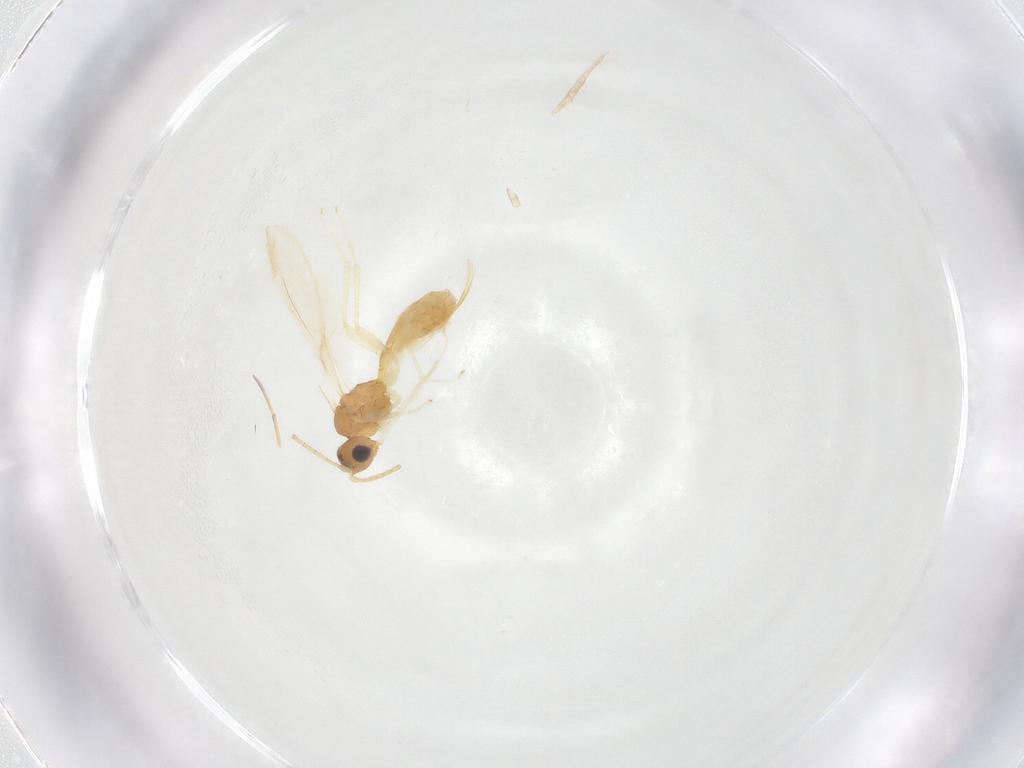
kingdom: Animalia
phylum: Arthropoda
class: Insecta
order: Hymenoptera
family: Braconidae
